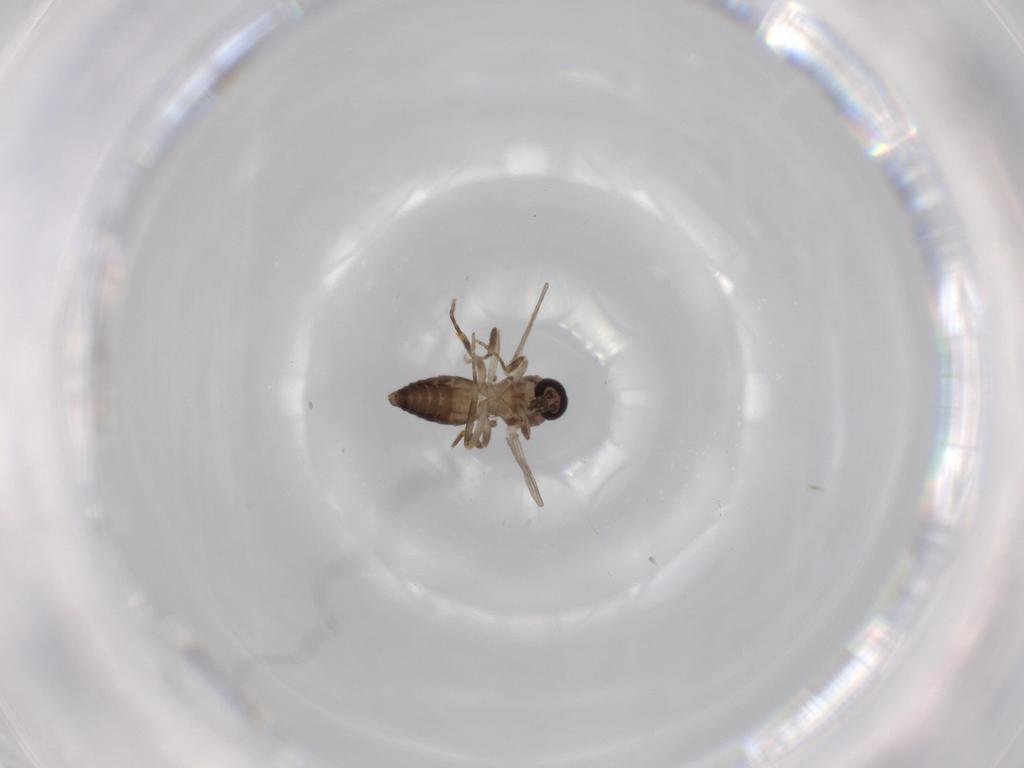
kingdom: Animalia
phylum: Arthropoda
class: Insecta
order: Diptera
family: Ceratopogonidae
